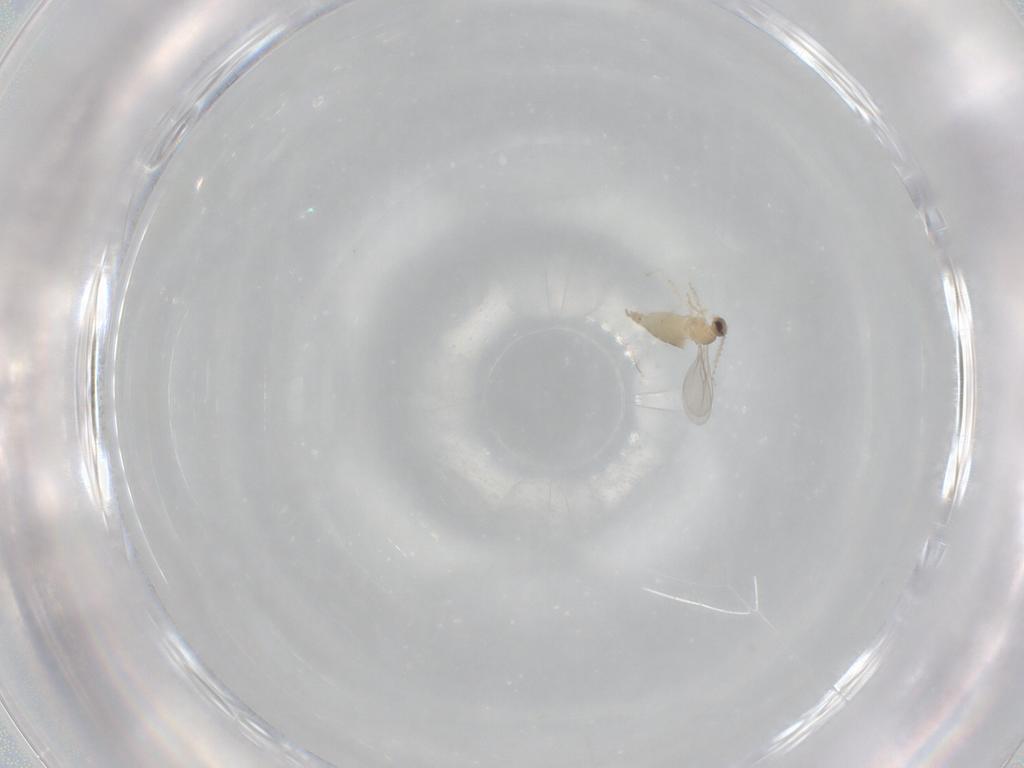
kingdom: Animalia
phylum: Arthropoda
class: Insecta
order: Diptera
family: Cecidomyiidae
